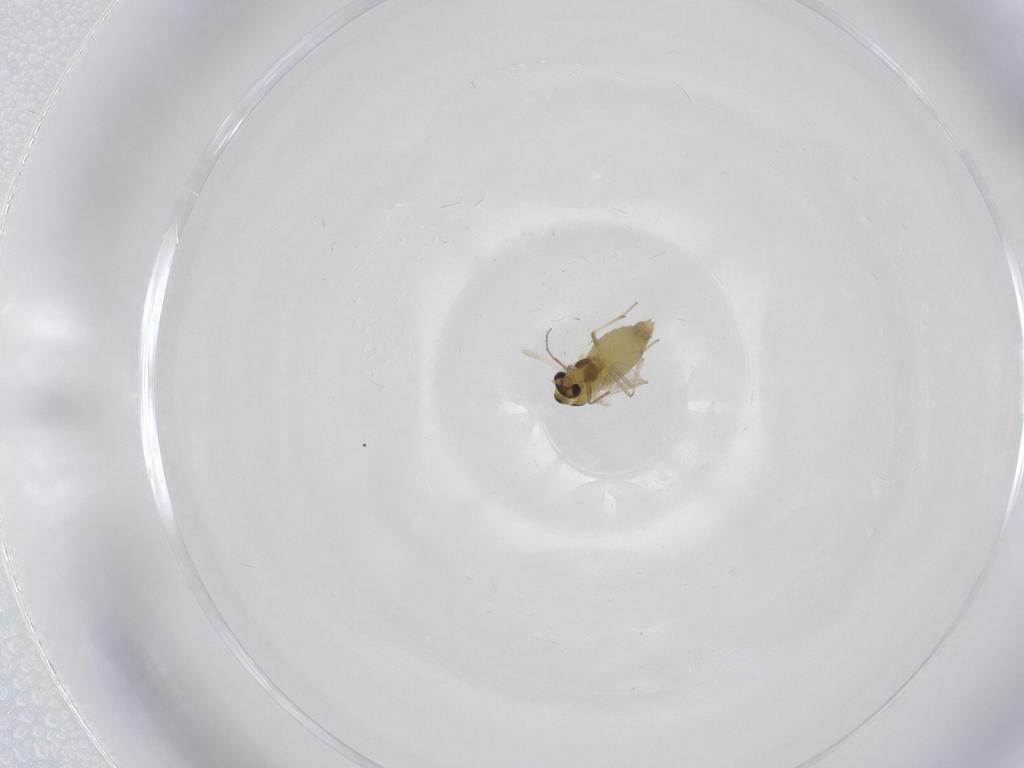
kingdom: Animalia
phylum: Arthropoda
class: Insecta
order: Diptera
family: Chironomidae
